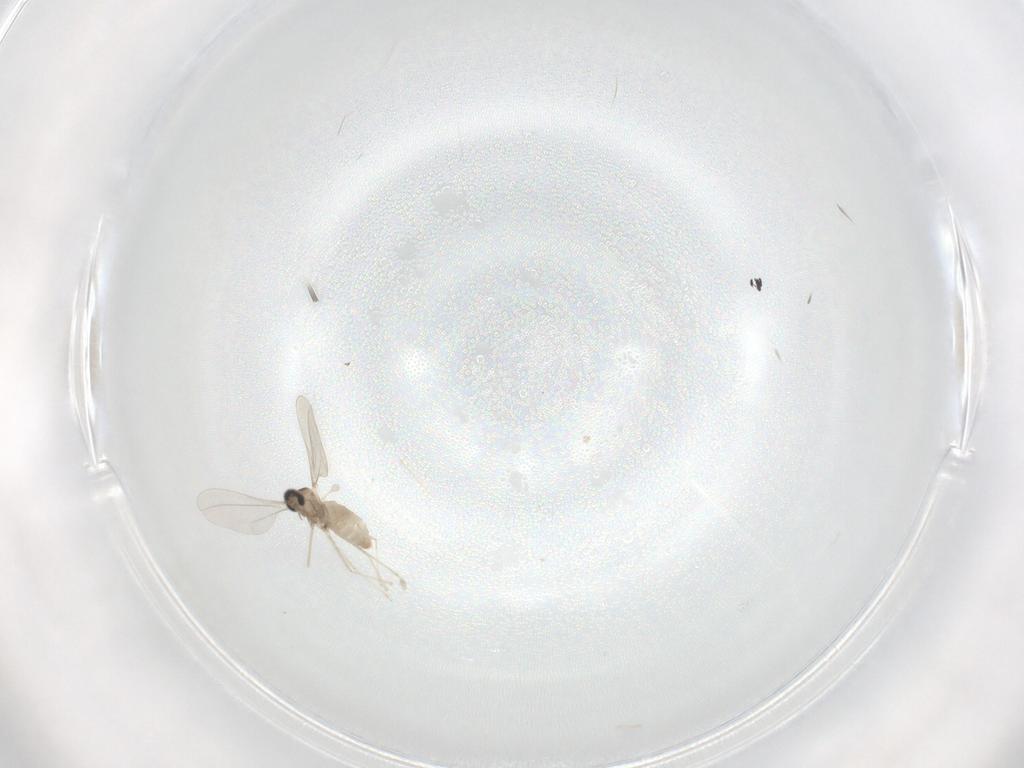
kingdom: Animalia
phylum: Arthropoda
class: Insecta
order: Diptera
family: Cecidomyiidae
